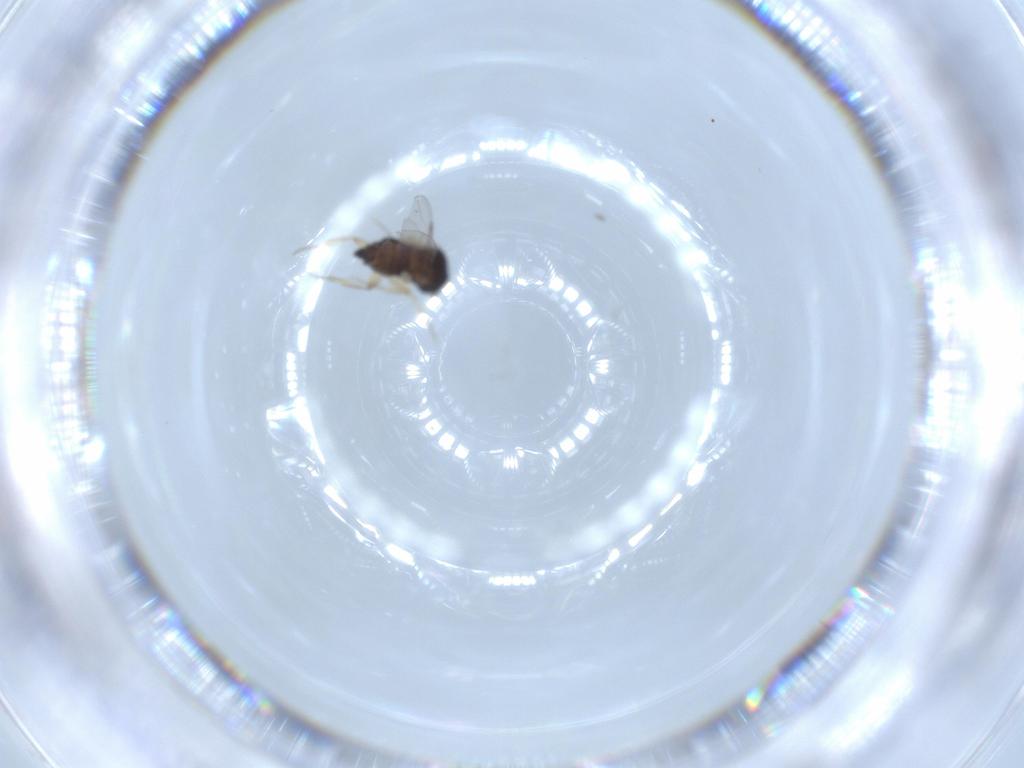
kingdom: Animalia
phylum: Arthropoda
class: Insecta
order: Diptera
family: Phoridae
